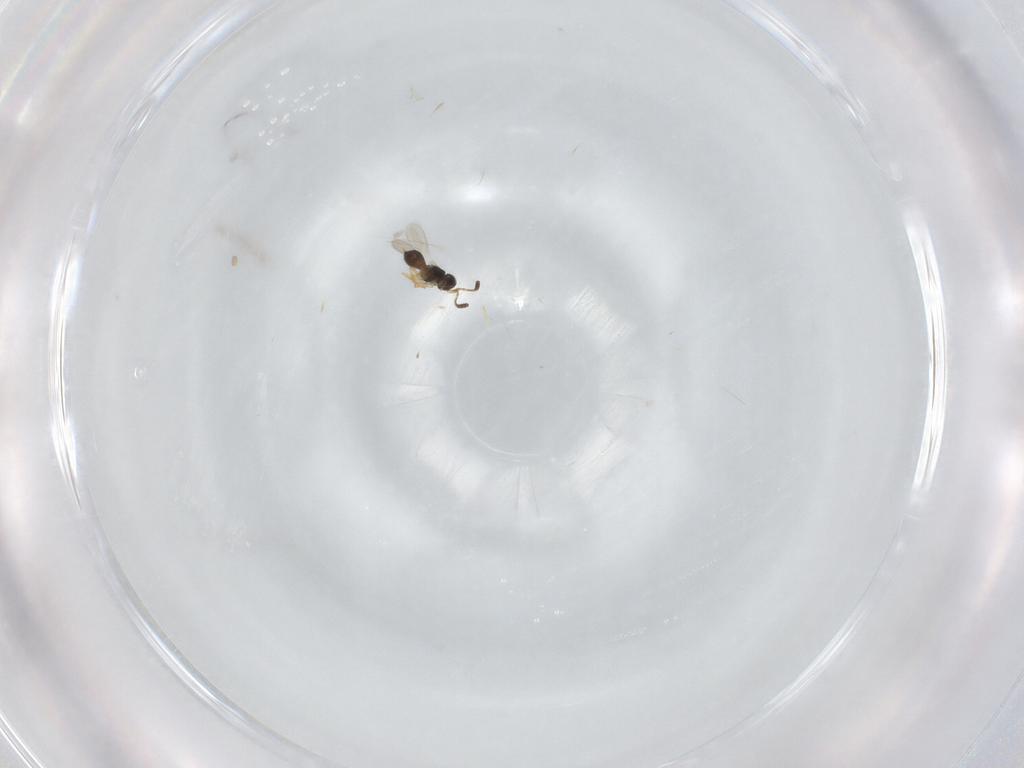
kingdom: Animalia
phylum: Arthropoda
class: Insecta
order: Hymenoptera
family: Scelionidae
